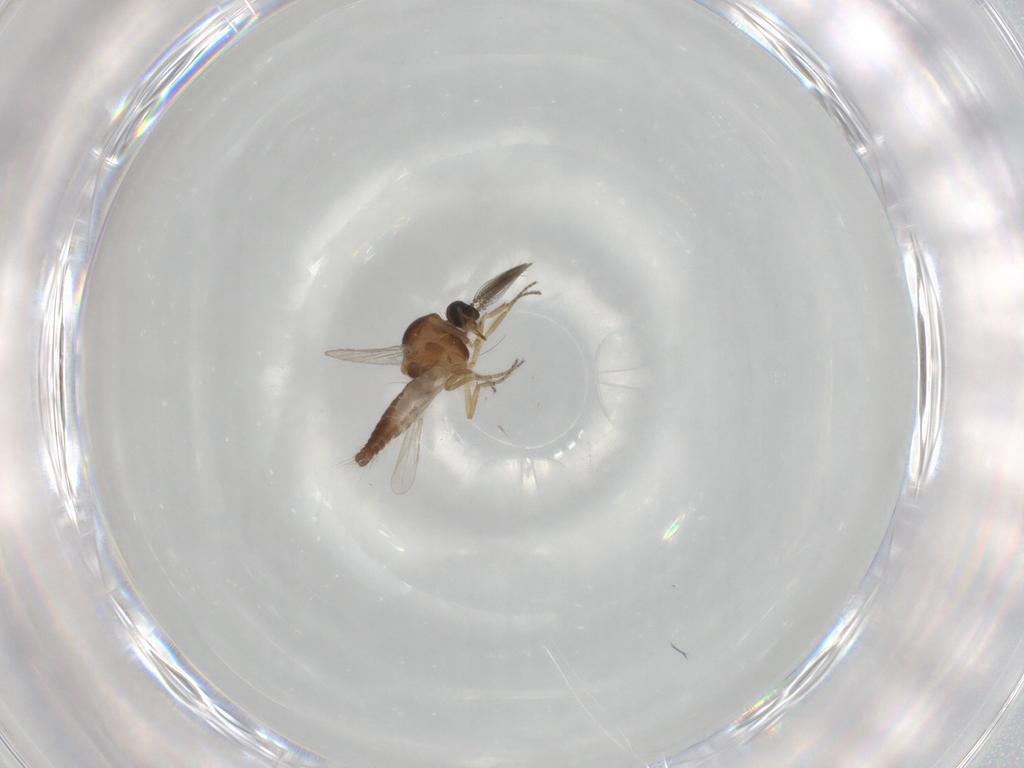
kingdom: Animalia
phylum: Arthropoda
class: Insecta
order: Diptera
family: Ceratopogonidae
